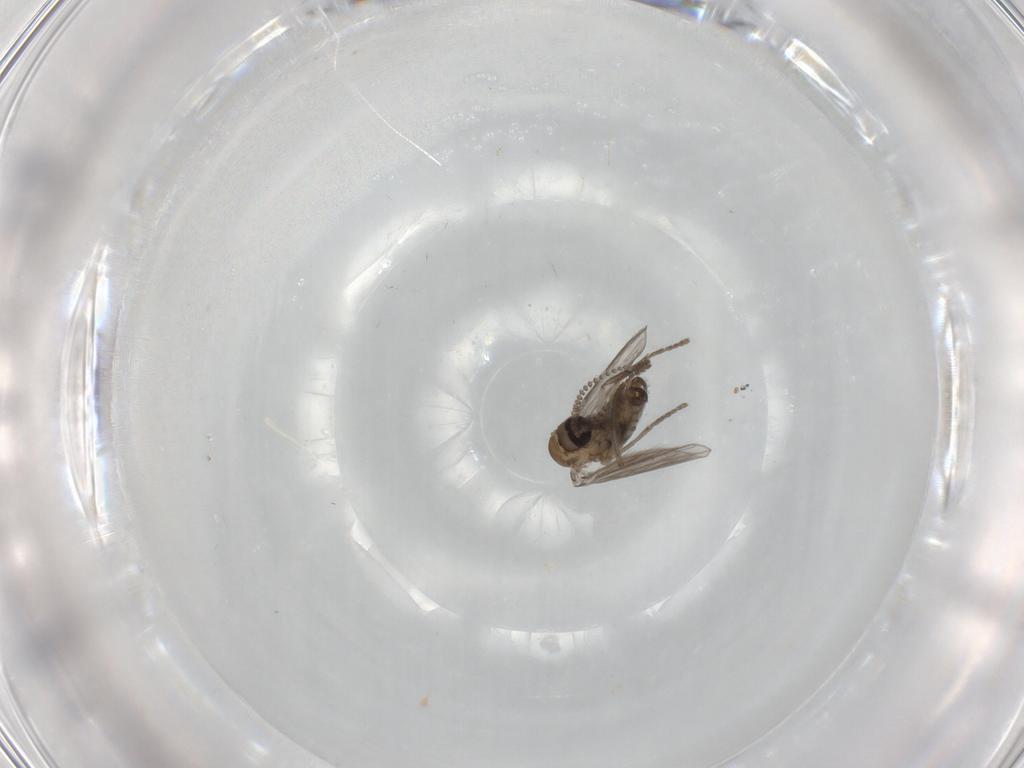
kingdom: Animalia
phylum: Arthropoda
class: Insecta
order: Diptera
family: Psychodidae
